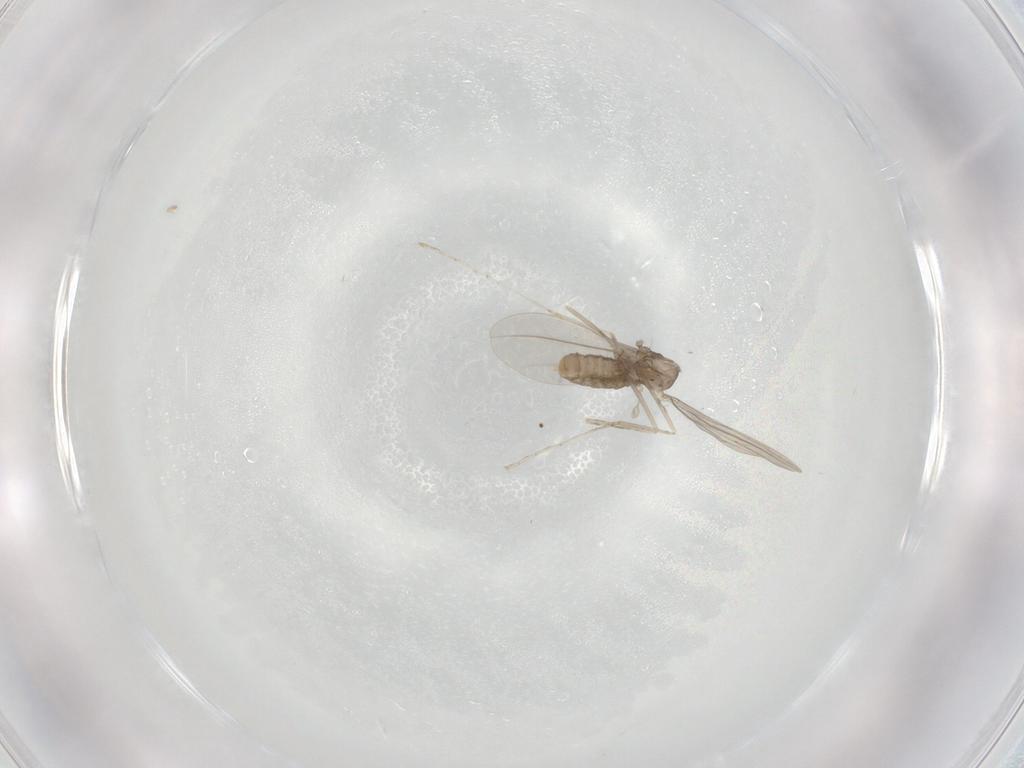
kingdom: Animalia
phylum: Arthropoda
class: Insecta
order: Diptera
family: Cecidomyiidae
